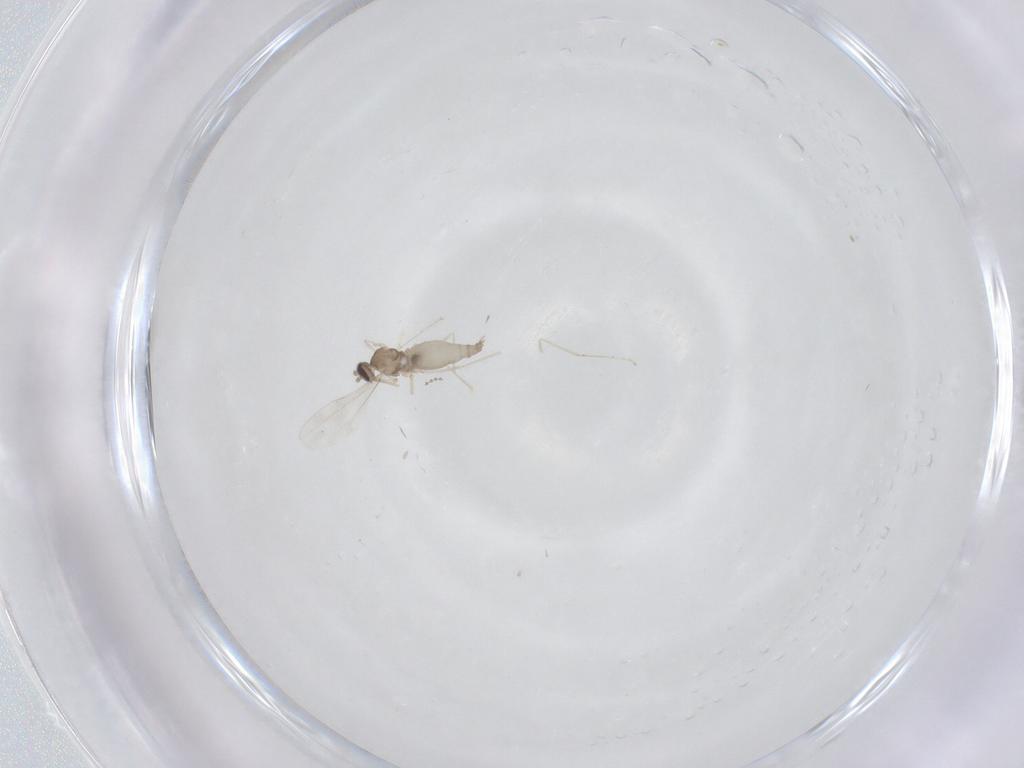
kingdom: Animalia
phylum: Arthropoda
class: Insecta
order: Diptera
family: Cecidomyiidae
